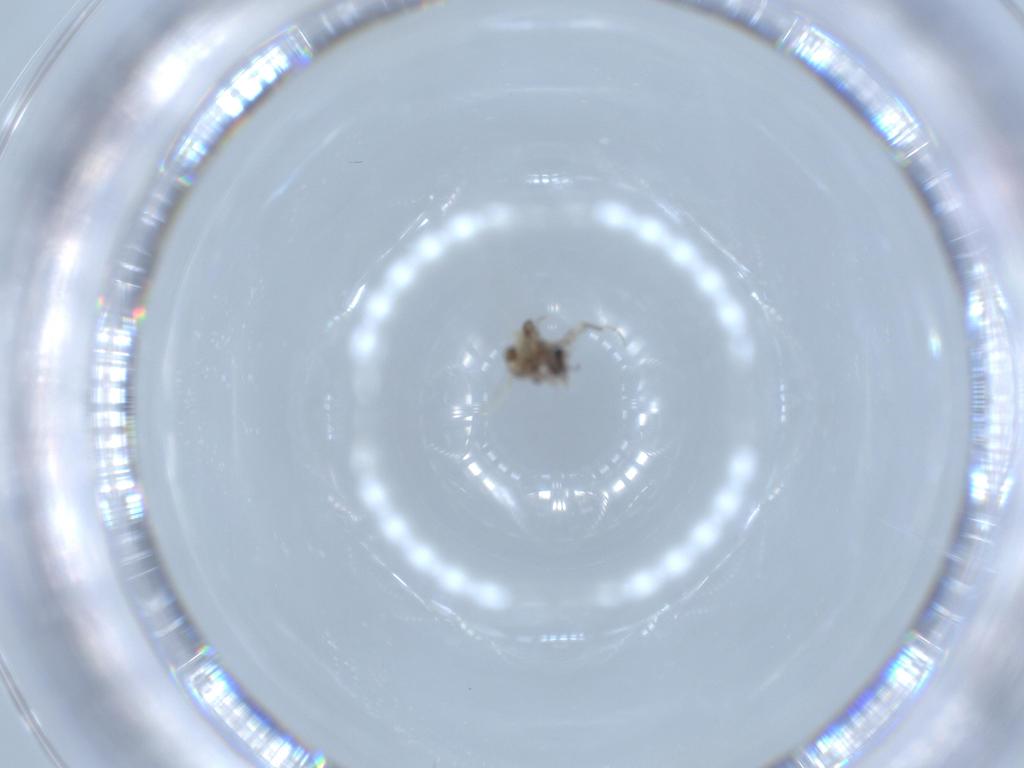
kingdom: Animalia
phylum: Arthropoda
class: Insecta
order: Diptera
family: Ceratopogonidae
